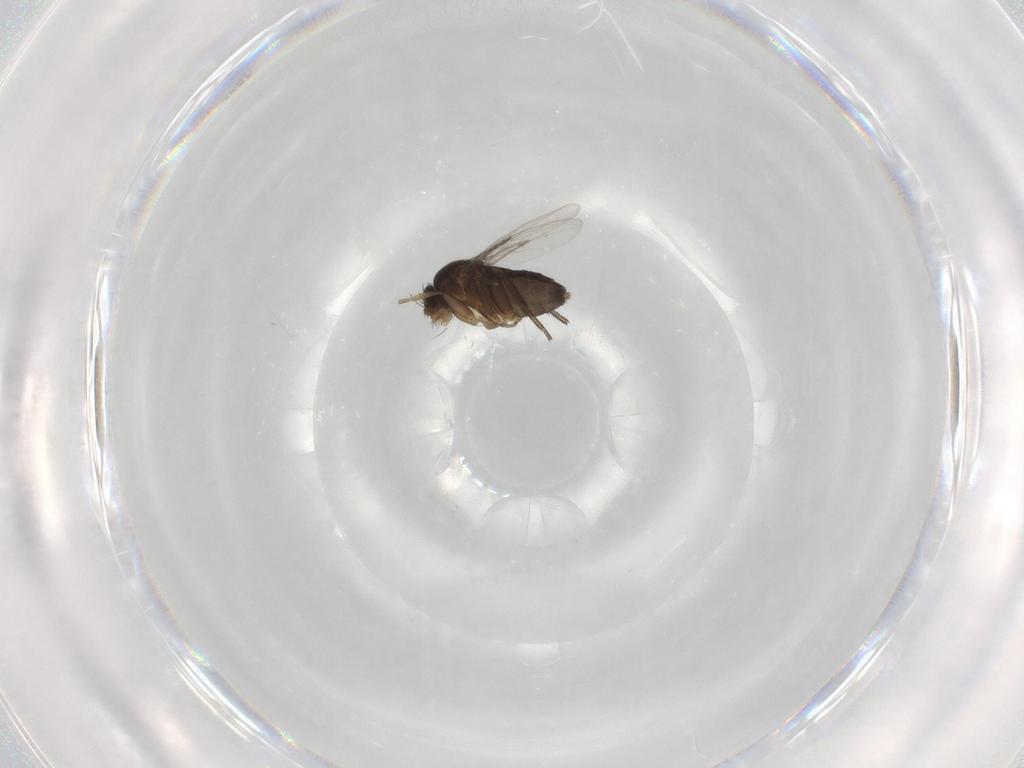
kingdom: Animalia
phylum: Arthropoda
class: Insecta
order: Diptera
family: Phoridae
